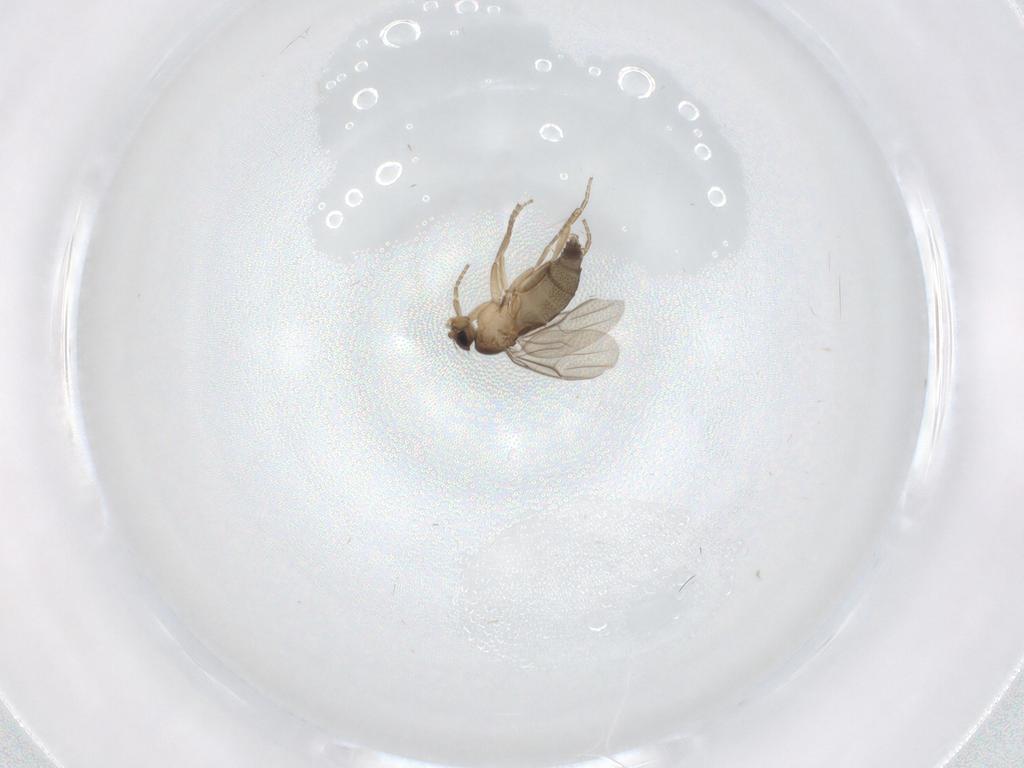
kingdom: Animalia
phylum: Arthropoda
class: Insecta
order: Diptera
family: Phoridae
